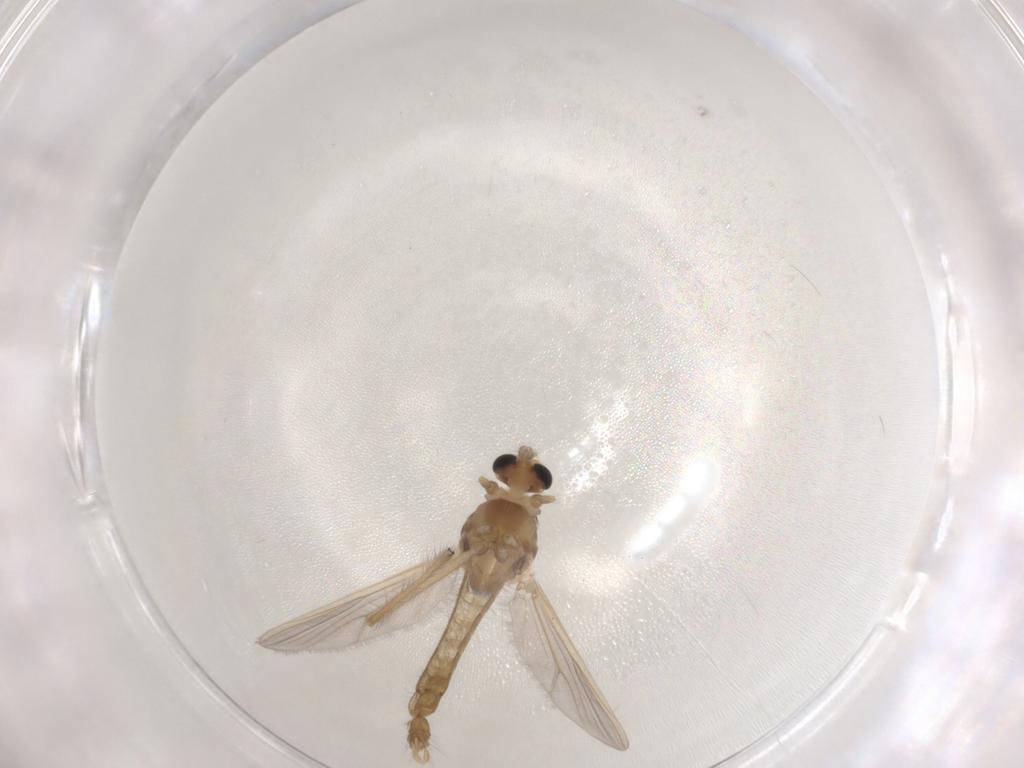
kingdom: Animalia
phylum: Arthropoda
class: Insecta
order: Diptera
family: Chironomidae
